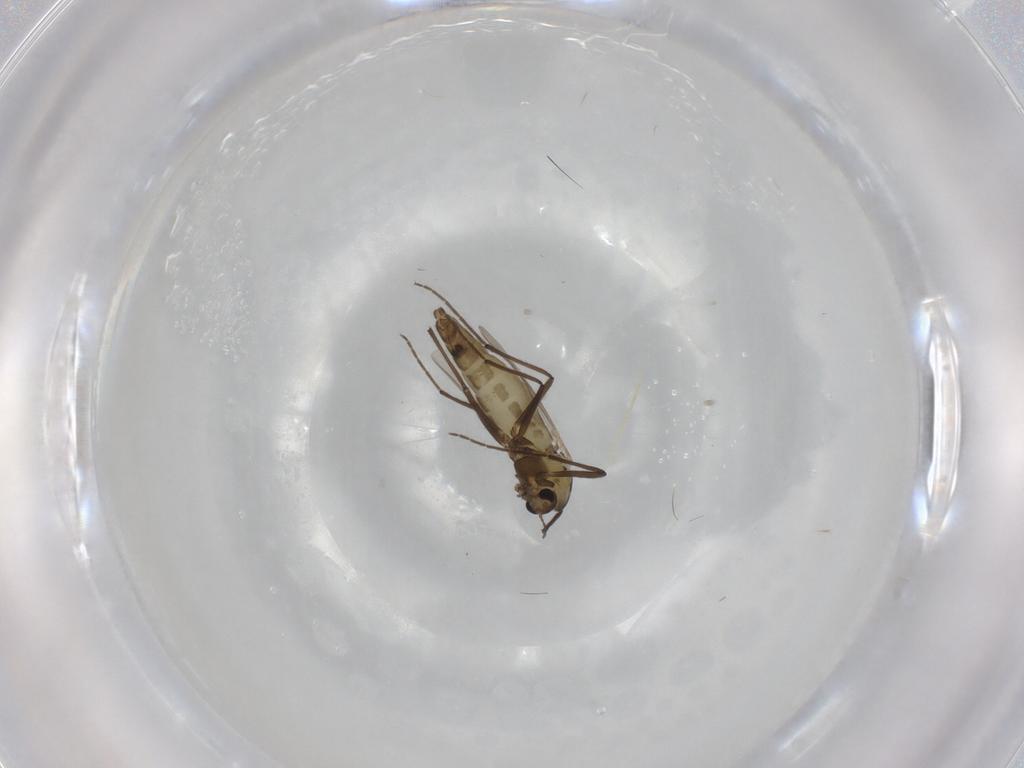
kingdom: Animalia
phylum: Arthropoda
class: Insecta
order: Diptera
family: Chironomidae
